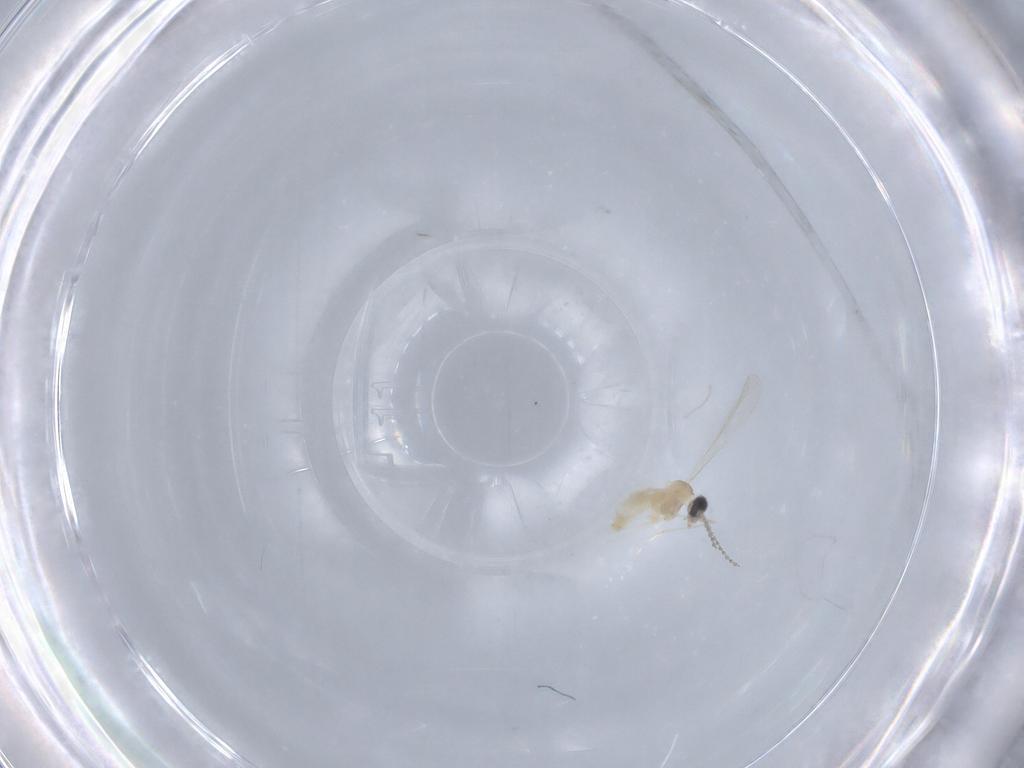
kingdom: Animalia
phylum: Arthropoda
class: Insecta
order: Diptera
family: Cecidomyiidae
